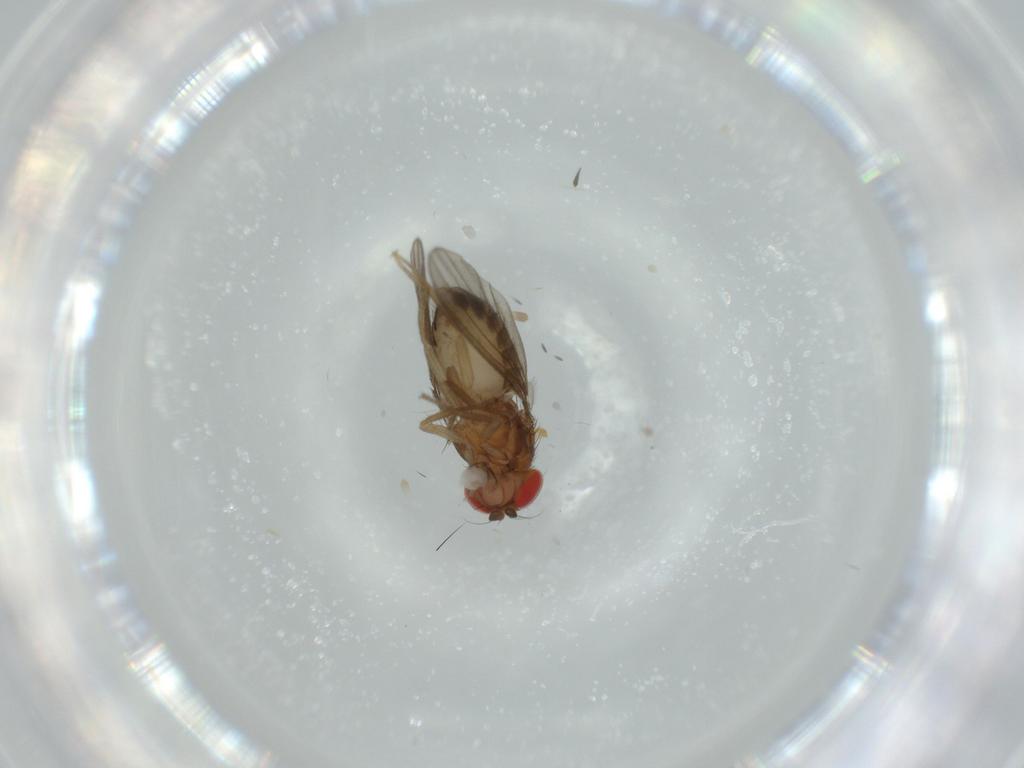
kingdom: Animalia
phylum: Arthropoda
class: Insecta
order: Diptera
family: Drosophilidae
